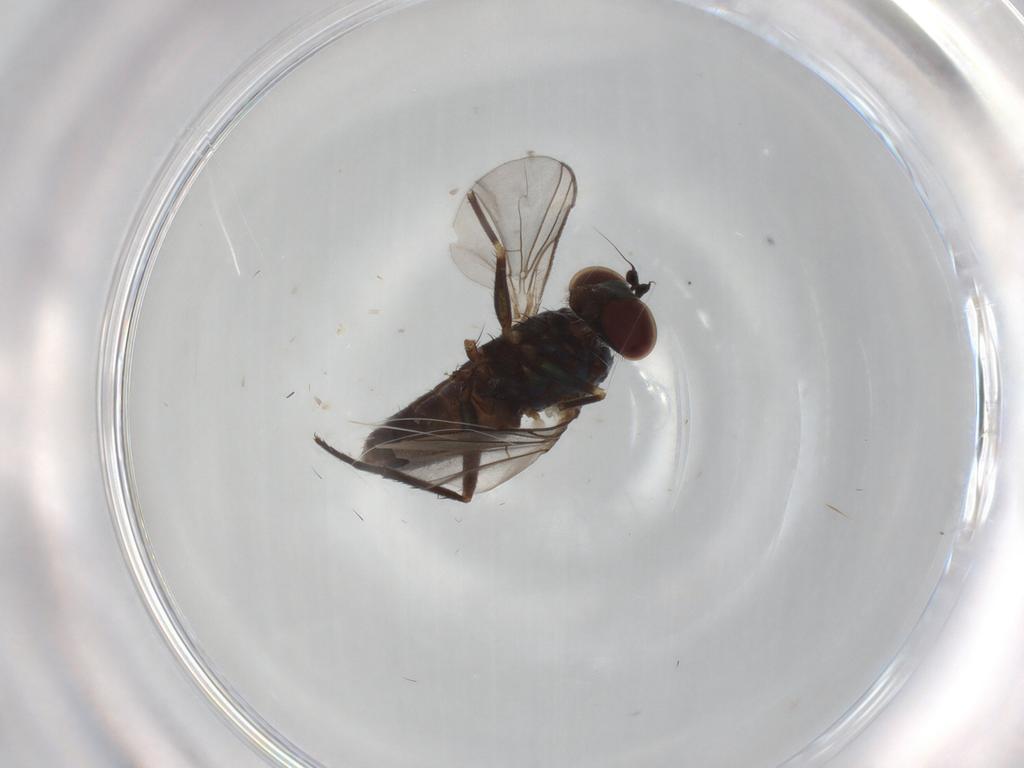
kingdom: Animalia
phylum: Arthropoda
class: Insecta
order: Diptera
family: Phoridae
